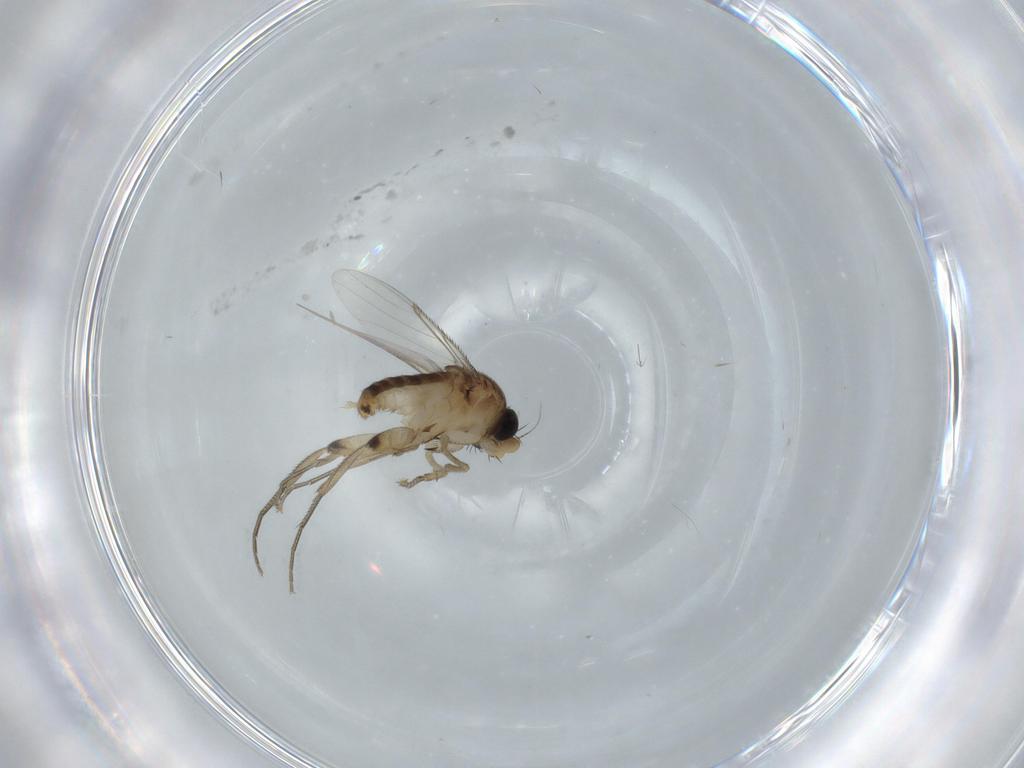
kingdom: Animalia
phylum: Arthropoda
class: Insecta
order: Diptera
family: Phoridae
